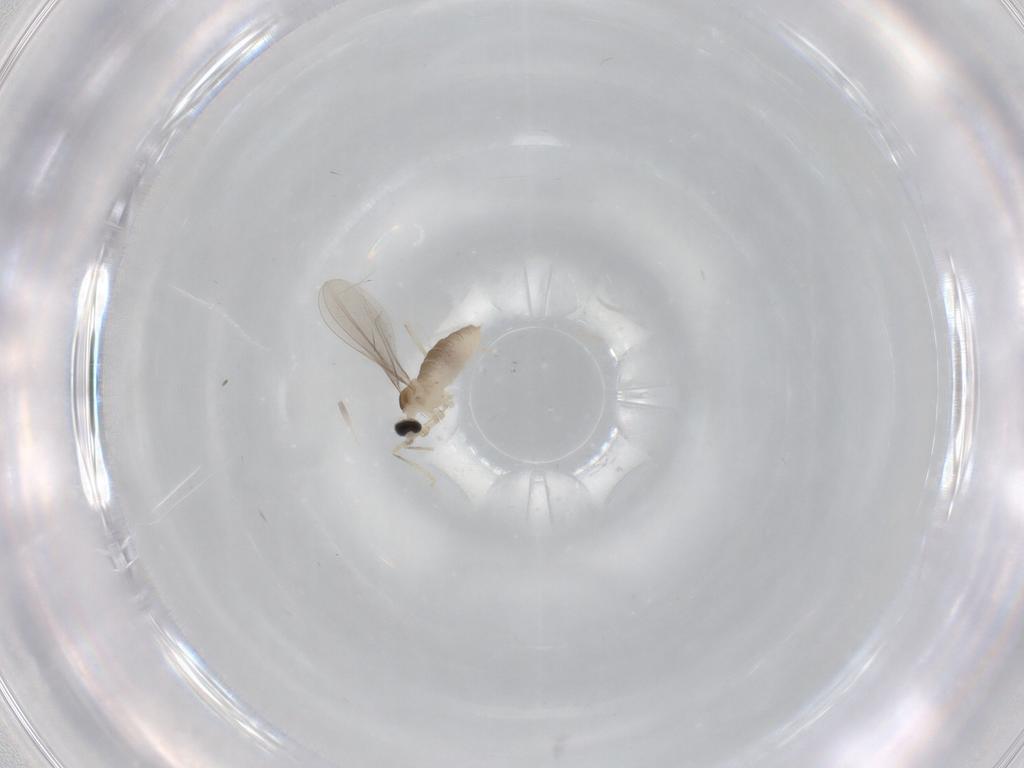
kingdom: Animalia
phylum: Arthropoda
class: Insecta
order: Diptera
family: Cecidomyiidae
